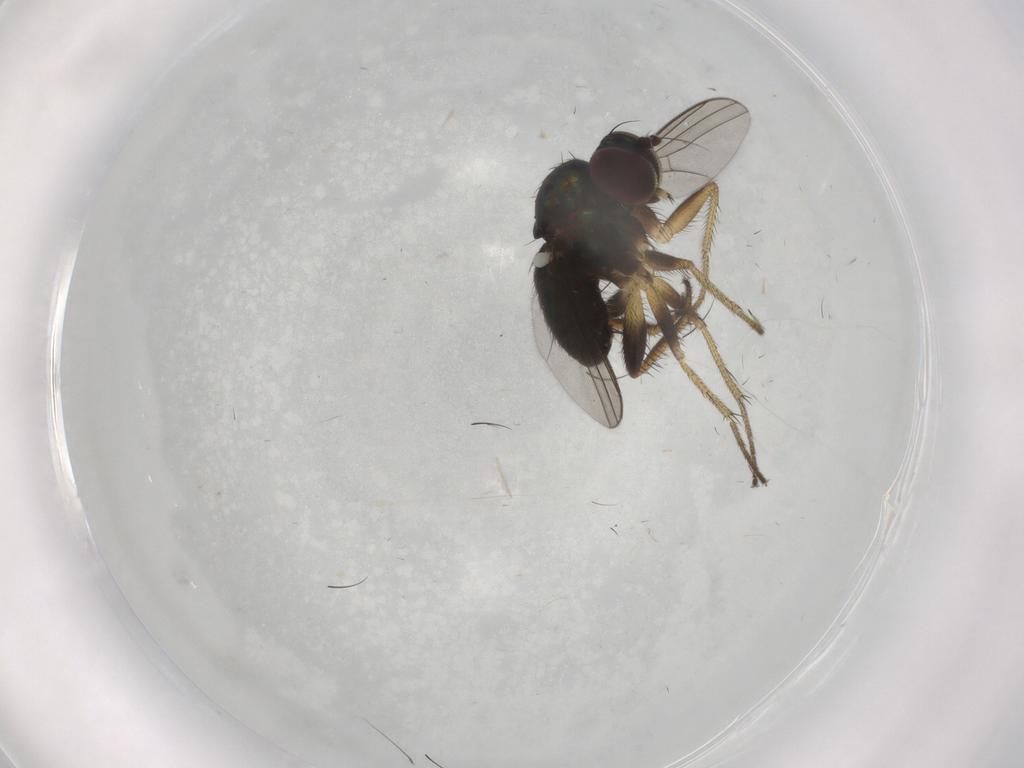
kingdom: Animalia
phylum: Arthropoda
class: Insecta
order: Diptera
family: Dolichopodidae
